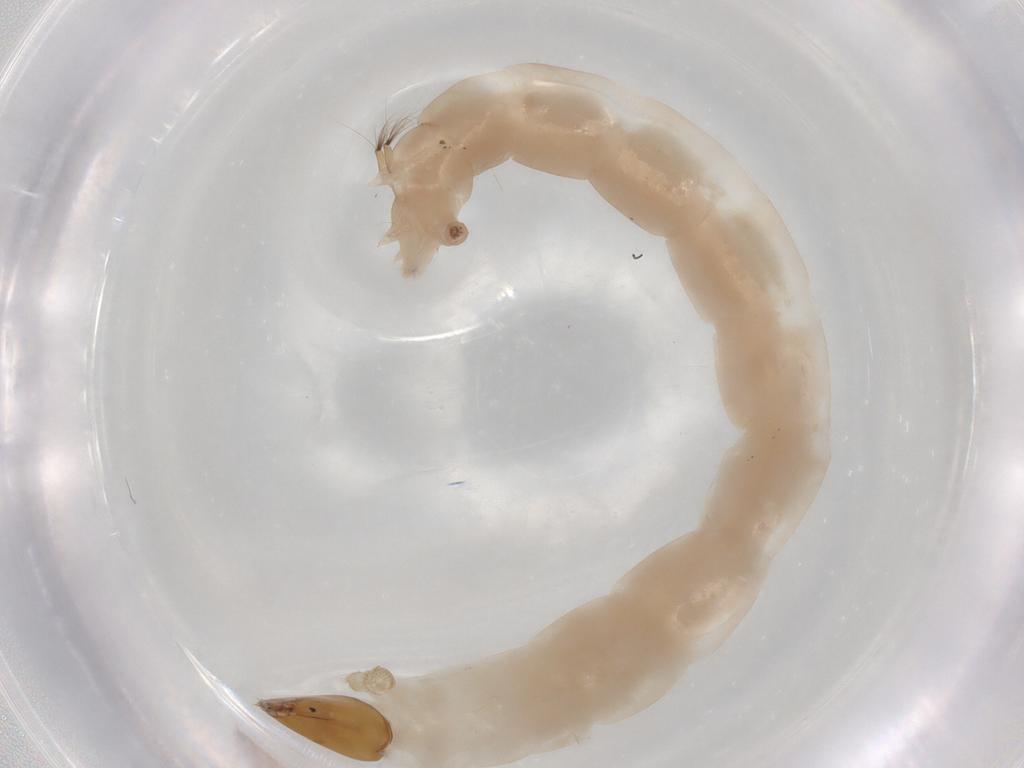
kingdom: Animalia
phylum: Arthropoda
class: Insecta
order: Diptera
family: Chironomidae
